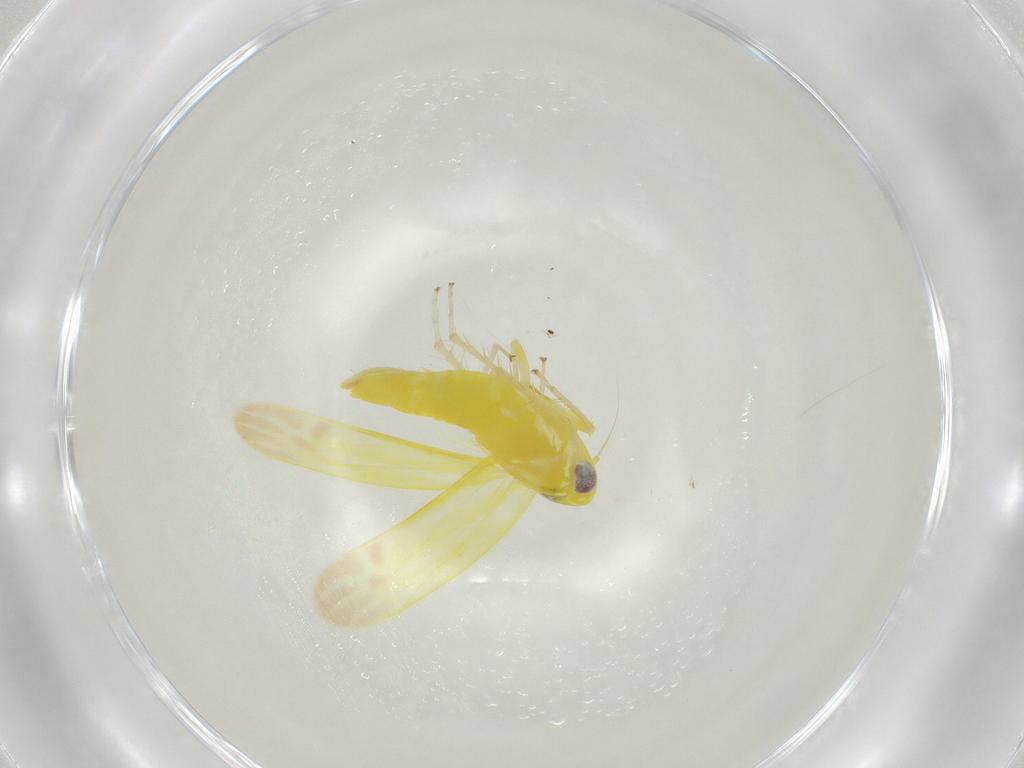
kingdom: Animalia
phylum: Arthropoda
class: Insecta
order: Hemiptera
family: Cicadellidae
